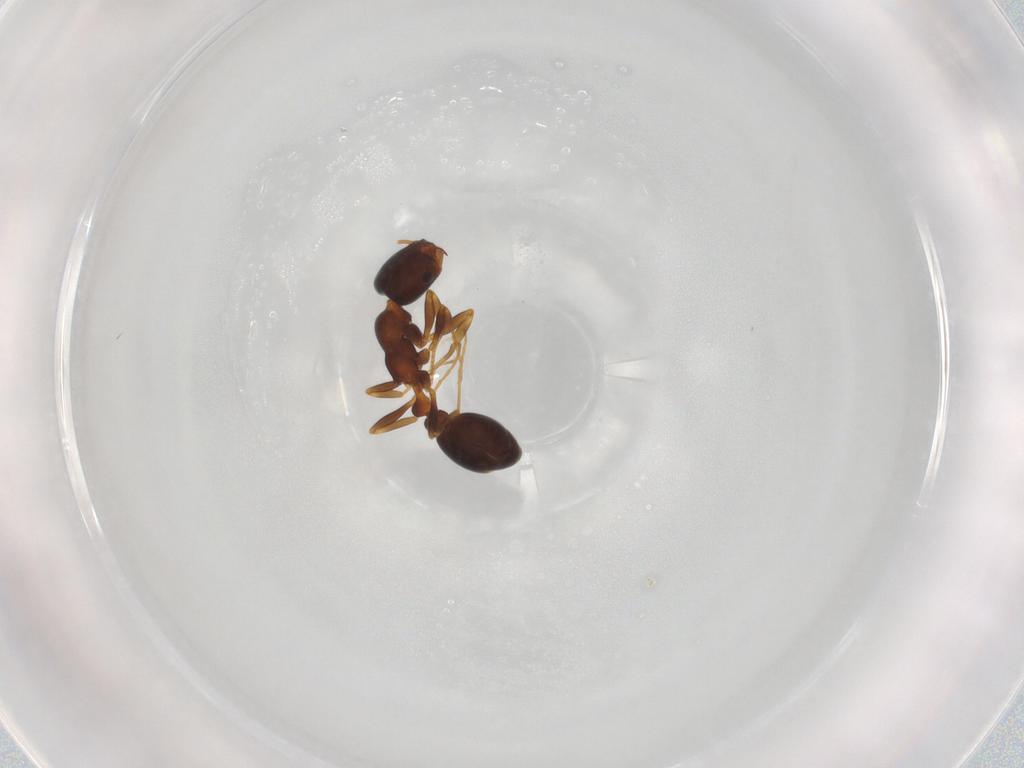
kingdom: Animalia
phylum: Arthropoda
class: Insecta
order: Hymenoptera
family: Formicidae
